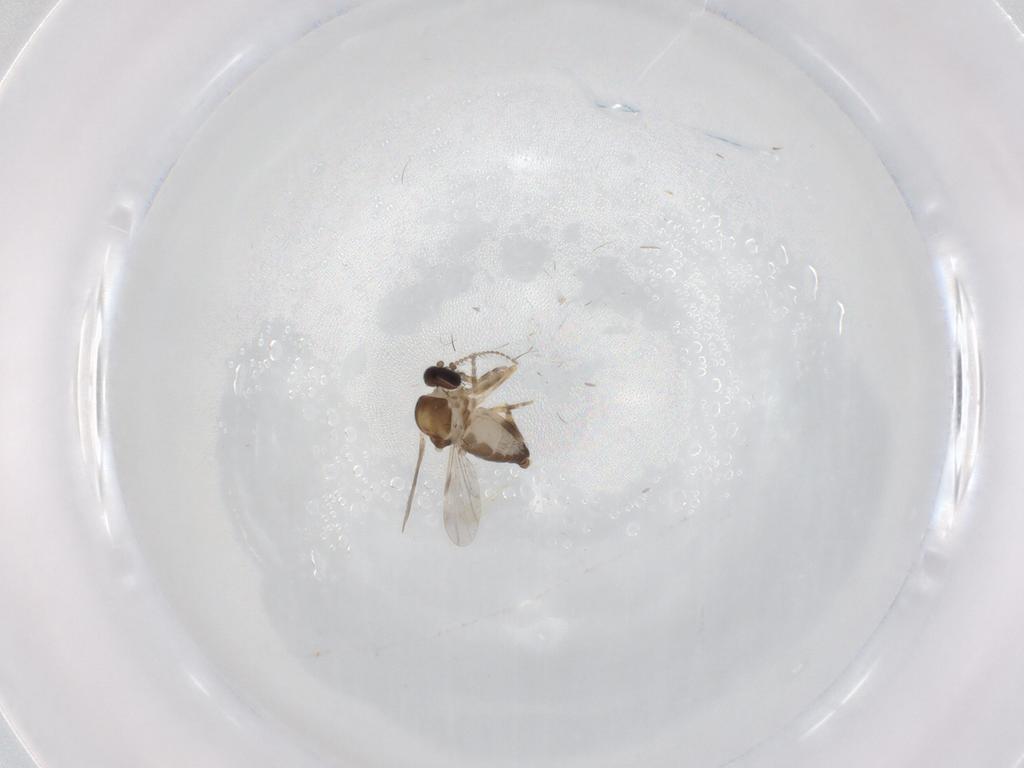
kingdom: Animalia
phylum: Arthropoda
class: Insecta
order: Diptera
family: Ceratopogonidae
